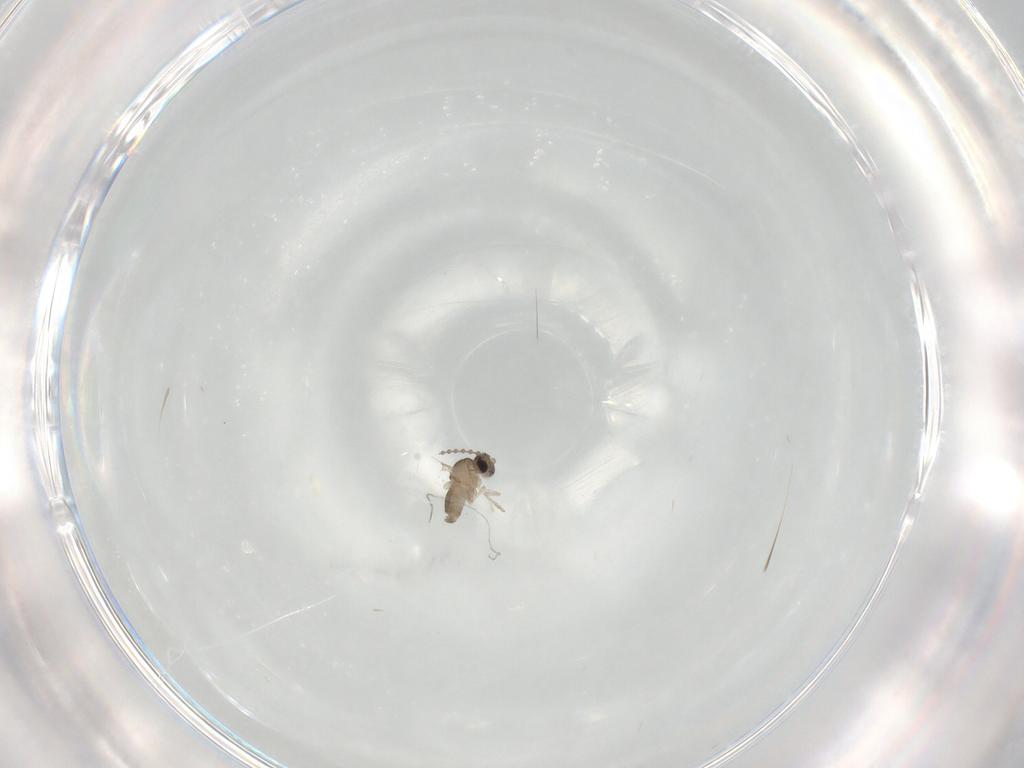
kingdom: Animalia
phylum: Arthropoda
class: Insecta
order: Diptera
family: Cecidomyiidae
